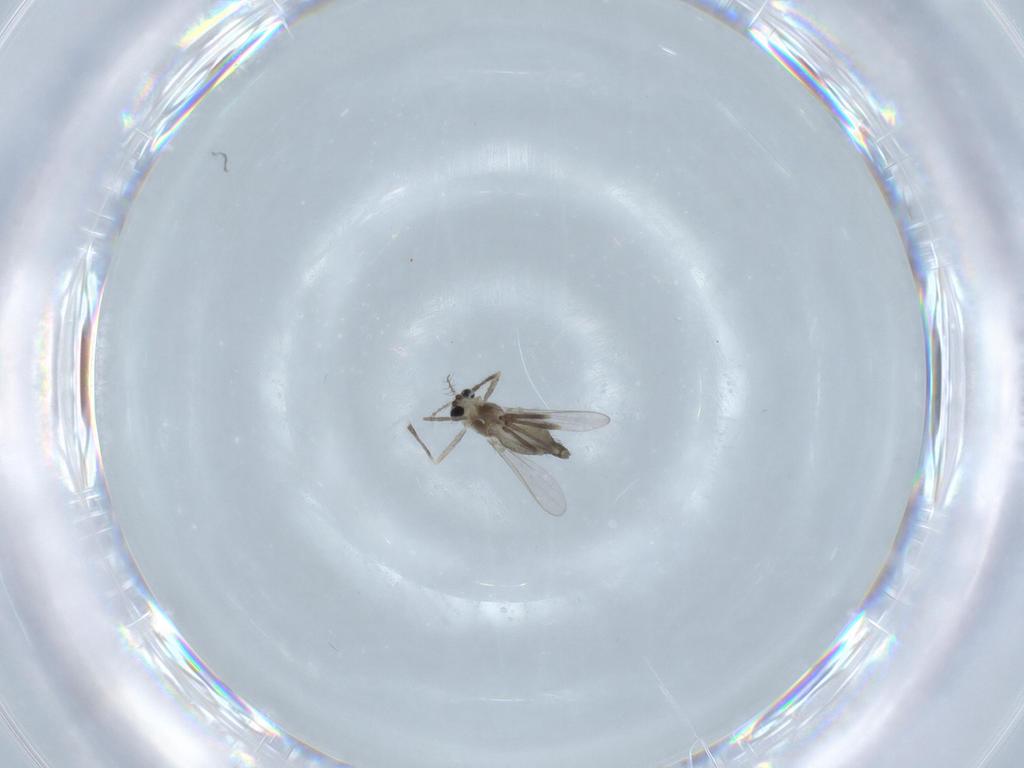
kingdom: Animalia
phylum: Arthropoda
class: Insecta
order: Diptera
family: Chironomidae
